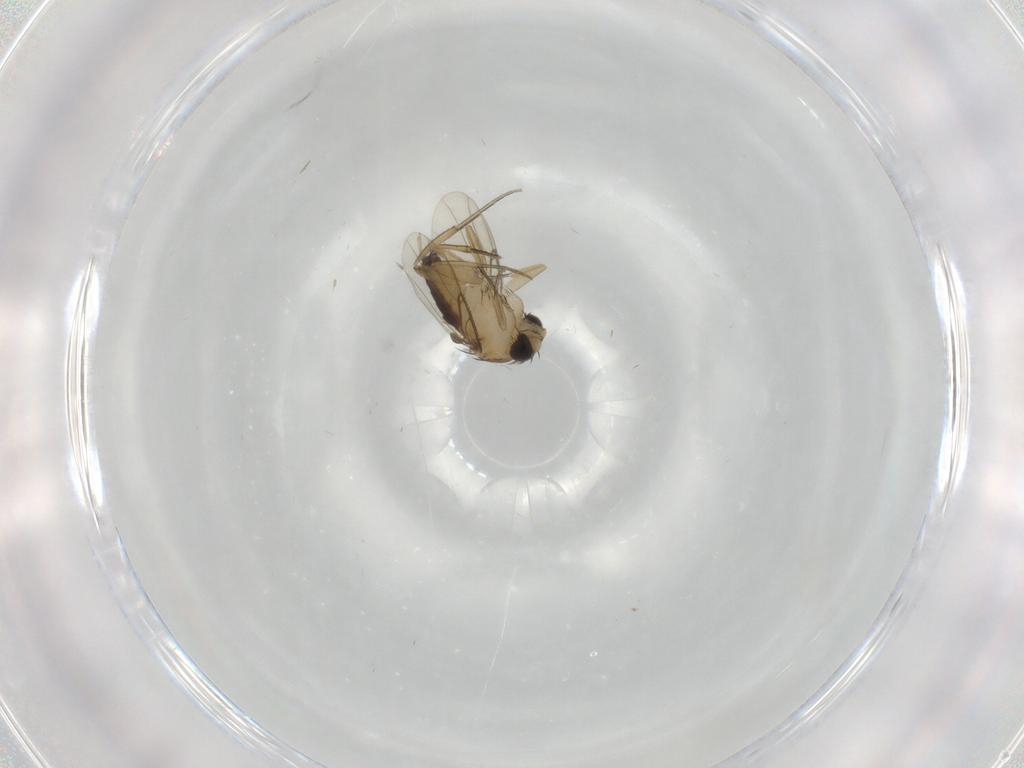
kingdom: Animalia
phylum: Arthropoda
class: Insecta
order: Diptera
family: Phoridae
